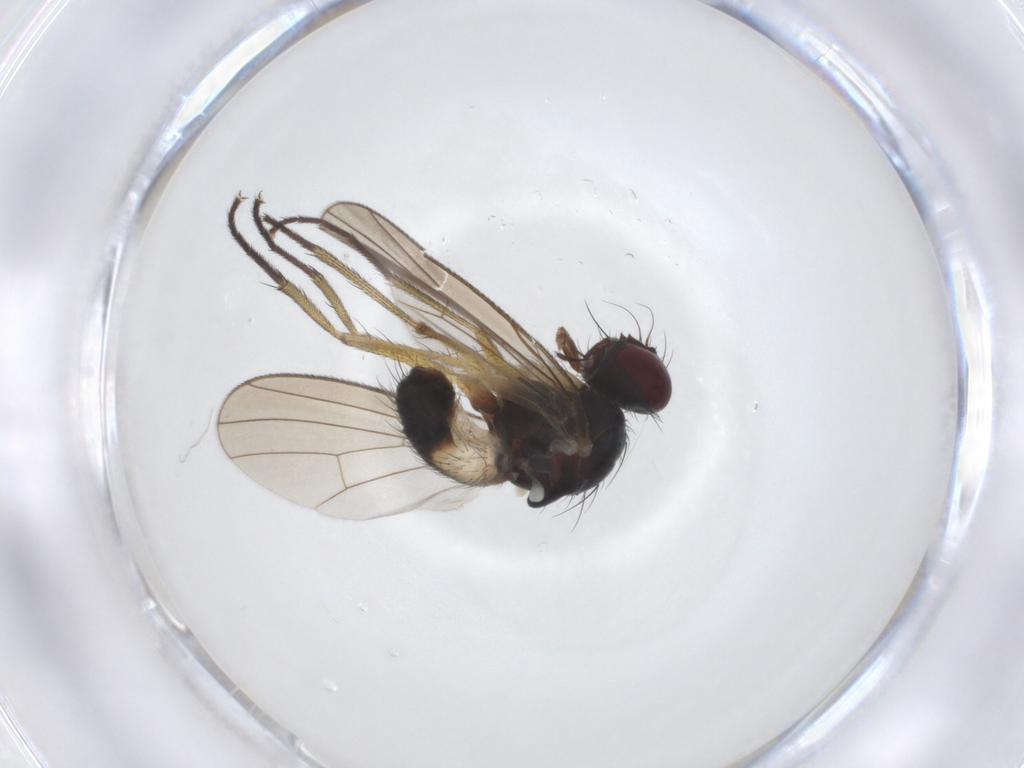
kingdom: Animalia
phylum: Arthropoda
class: Insecta
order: Diptera
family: Muscidae
